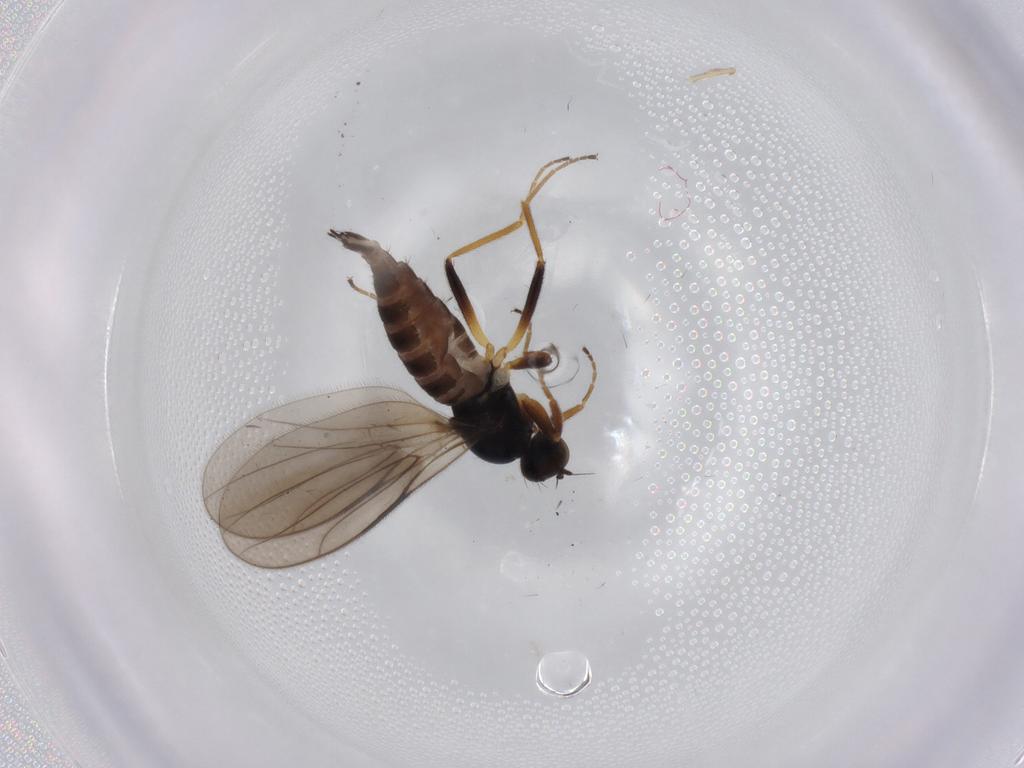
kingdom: Animalia
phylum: Arthropoda
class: Insecta
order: Diptera
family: Hybotidae
